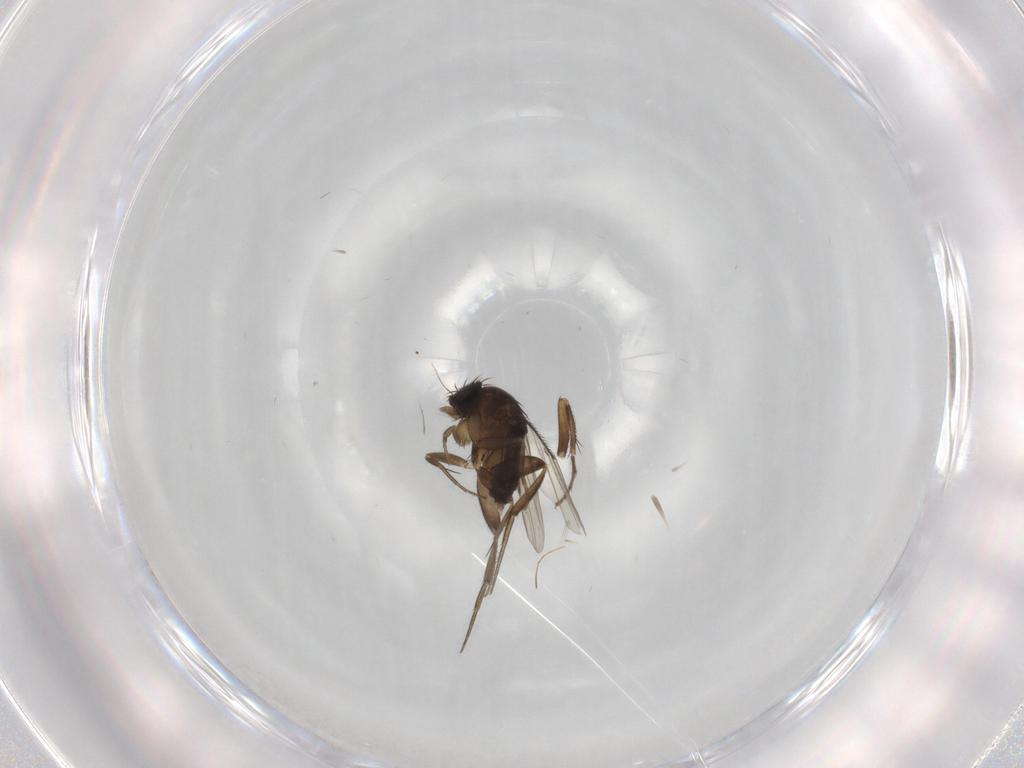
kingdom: Animalia
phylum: Arthropoda
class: Insecta
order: Diptera
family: Phoridae
